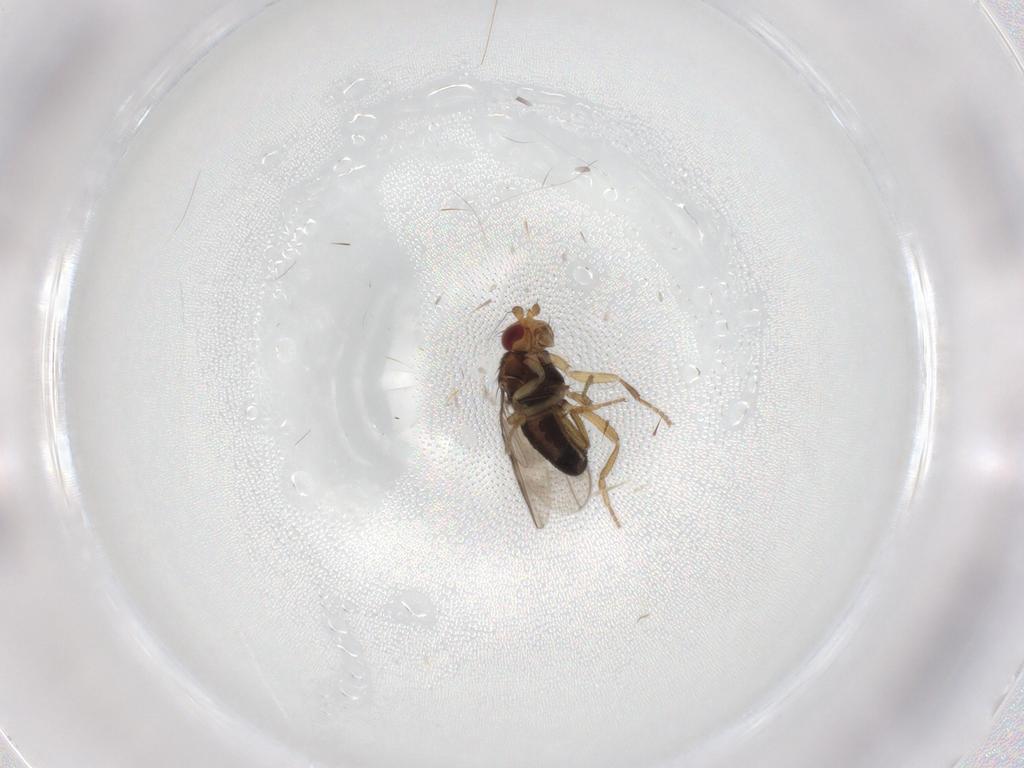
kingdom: Animalia
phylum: Arthropoda
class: Insecta
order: Diptera
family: Sphaeroceridae
